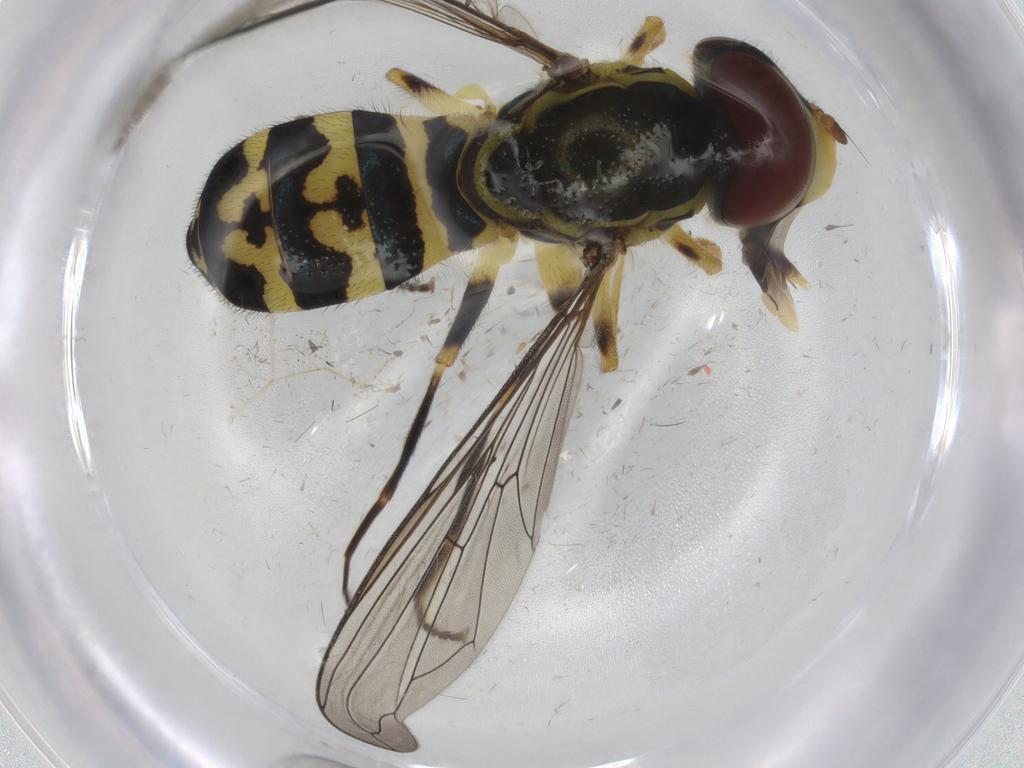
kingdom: Animalia
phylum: Arthropoda
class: Insecta
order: Diptera
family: Syrphidae
